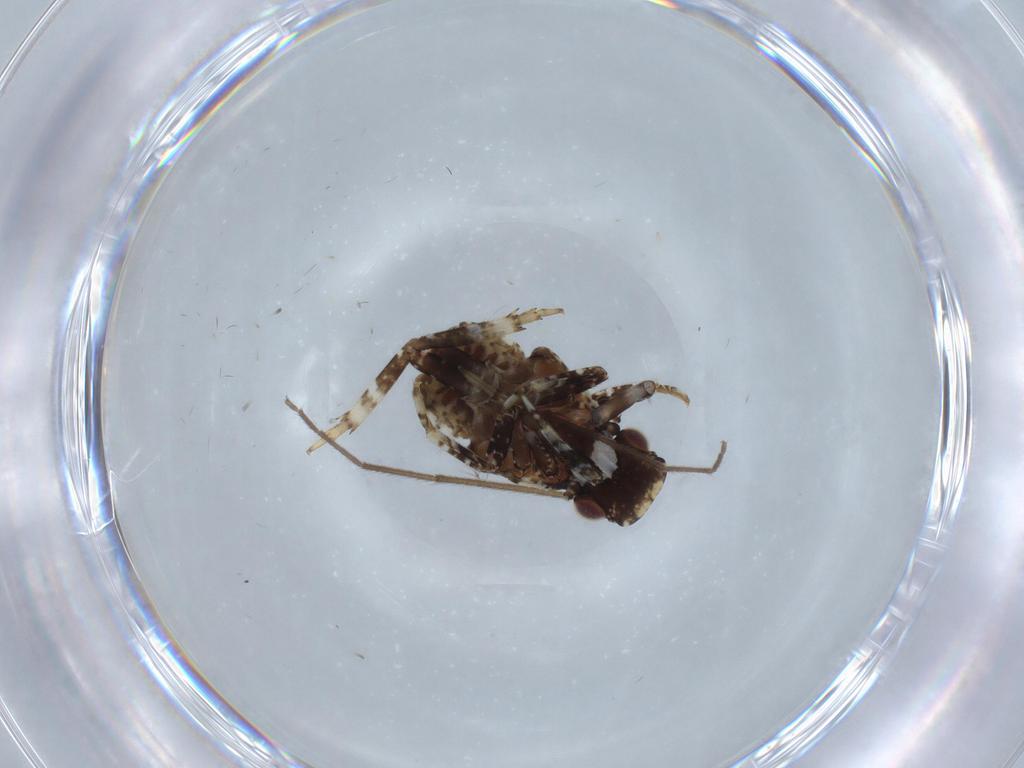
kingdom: Animalia
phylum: Arthropoda
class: Insecta
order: Hemiptera
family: Fulgoridae
